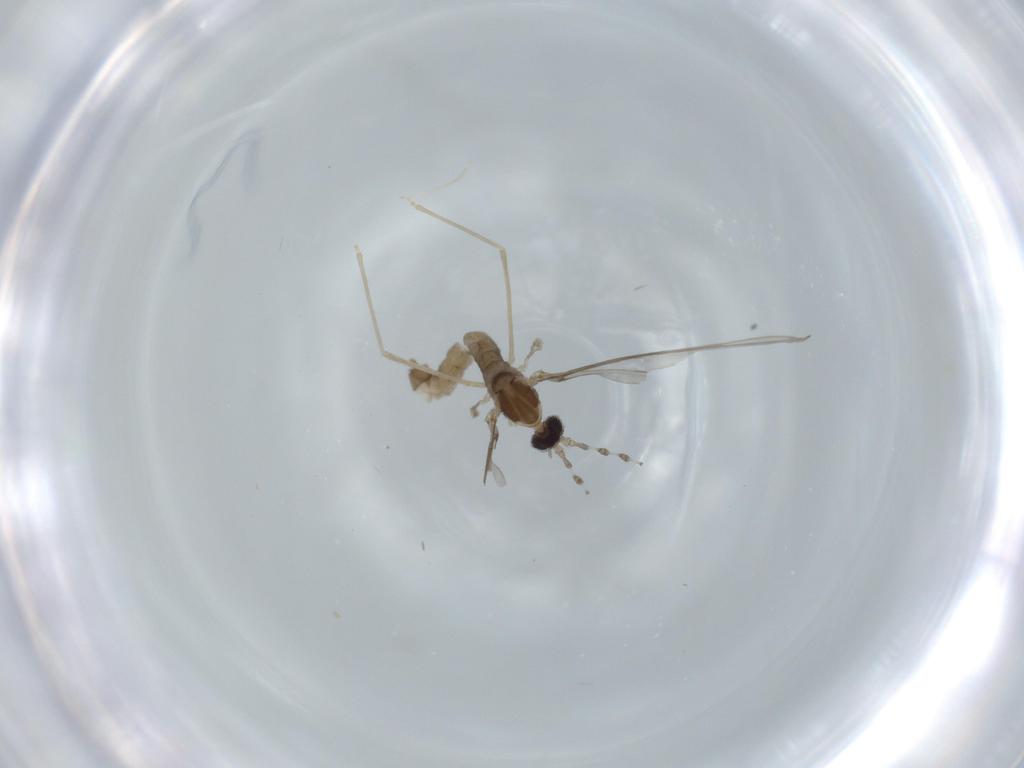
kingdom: Animalia
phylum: Arthropoda
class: Insecta
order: Diptera
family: Cecidomyiidae
